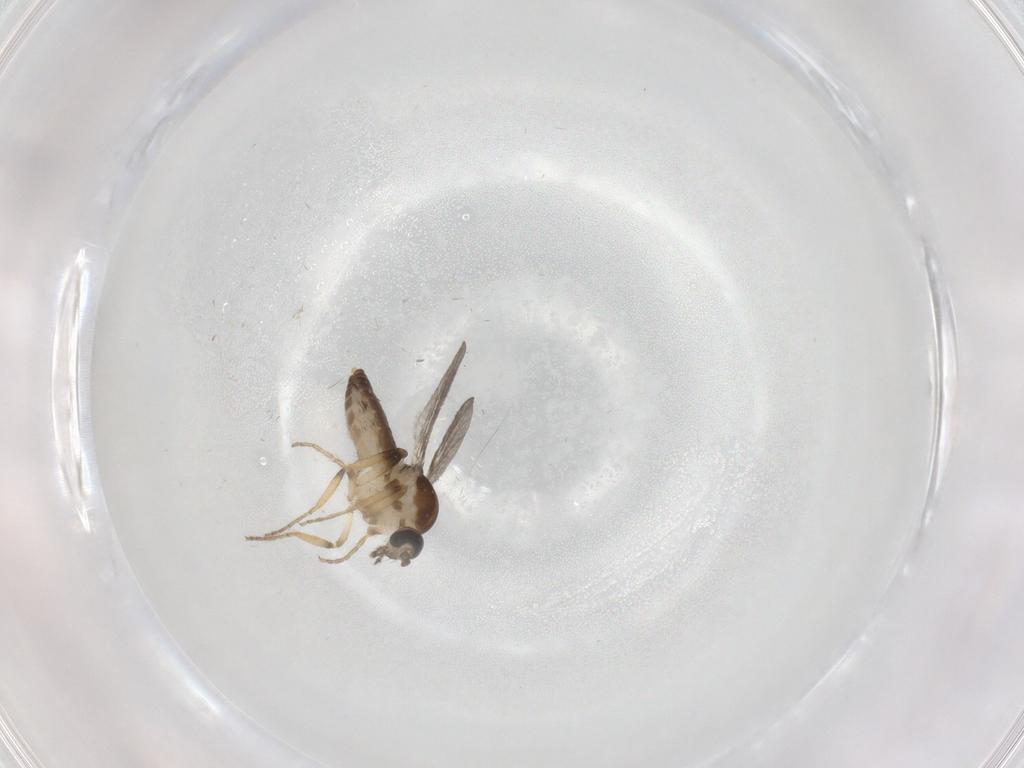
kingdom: Animalia
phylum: Arthropoda
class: Insecta
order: Diptera
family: Ceratopogonidae
